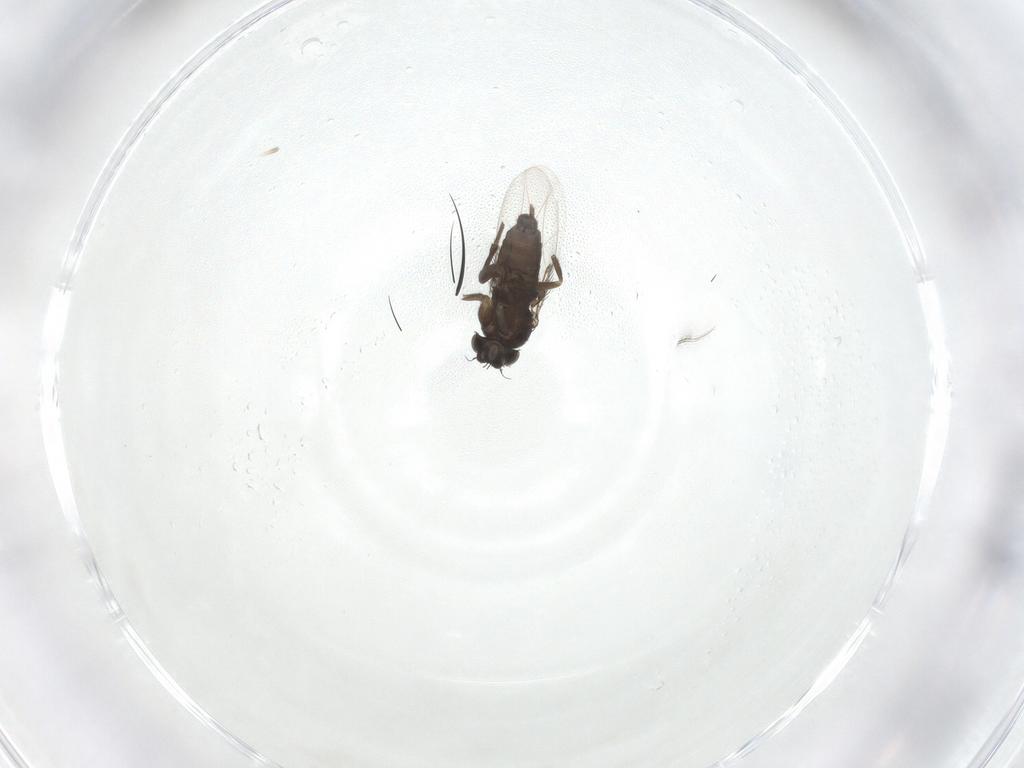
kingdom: Animalia
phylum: Arthropoda
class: Insecta
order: Diptera
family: Phoridae
